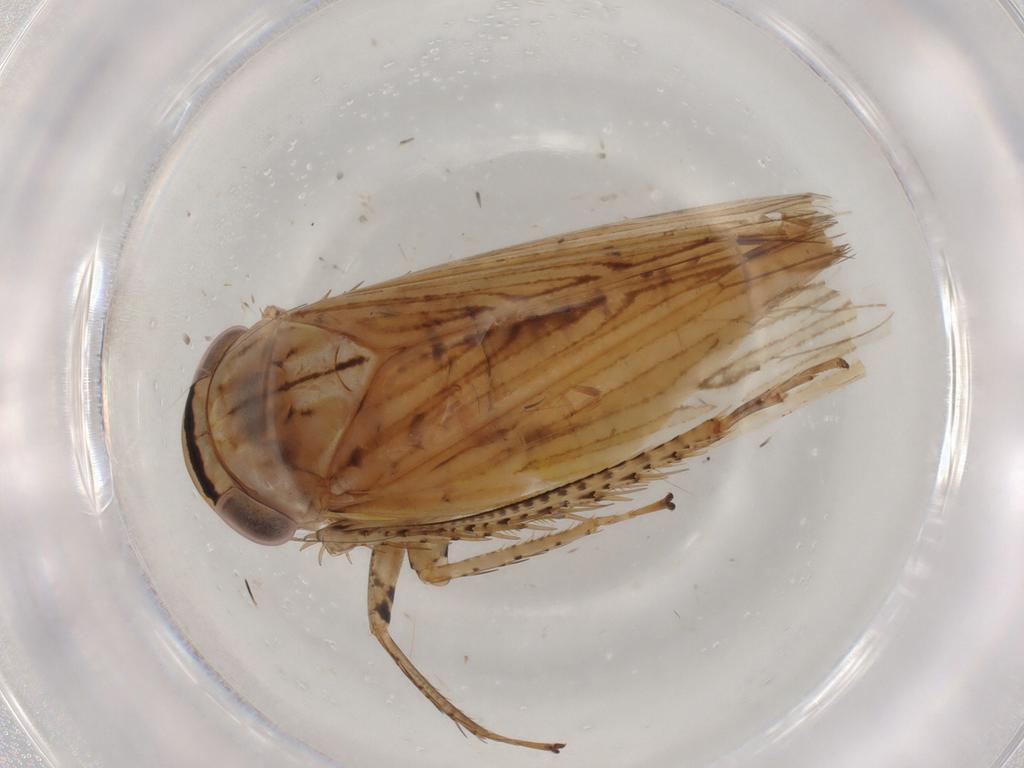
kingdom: Animalia
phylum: Arthropoda
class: Insecta
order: Hemiptera
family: Cicadellidae
